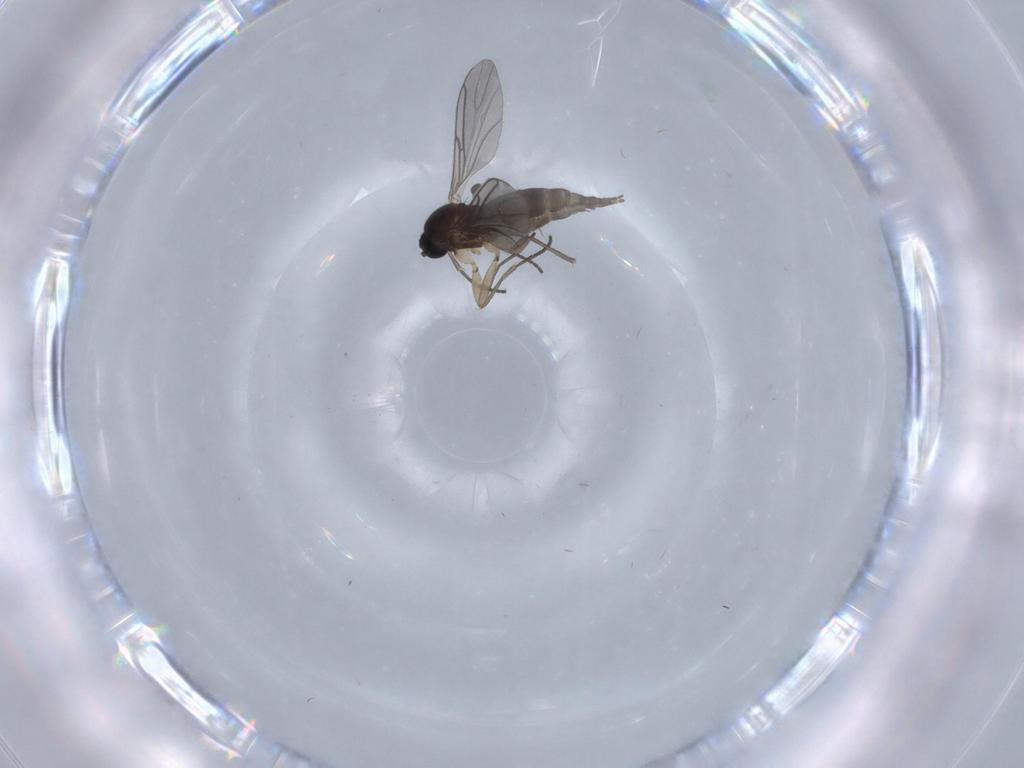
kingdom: Animalia
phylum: Arthropoda
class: Insecta
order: Diptera
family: Sciaridae
